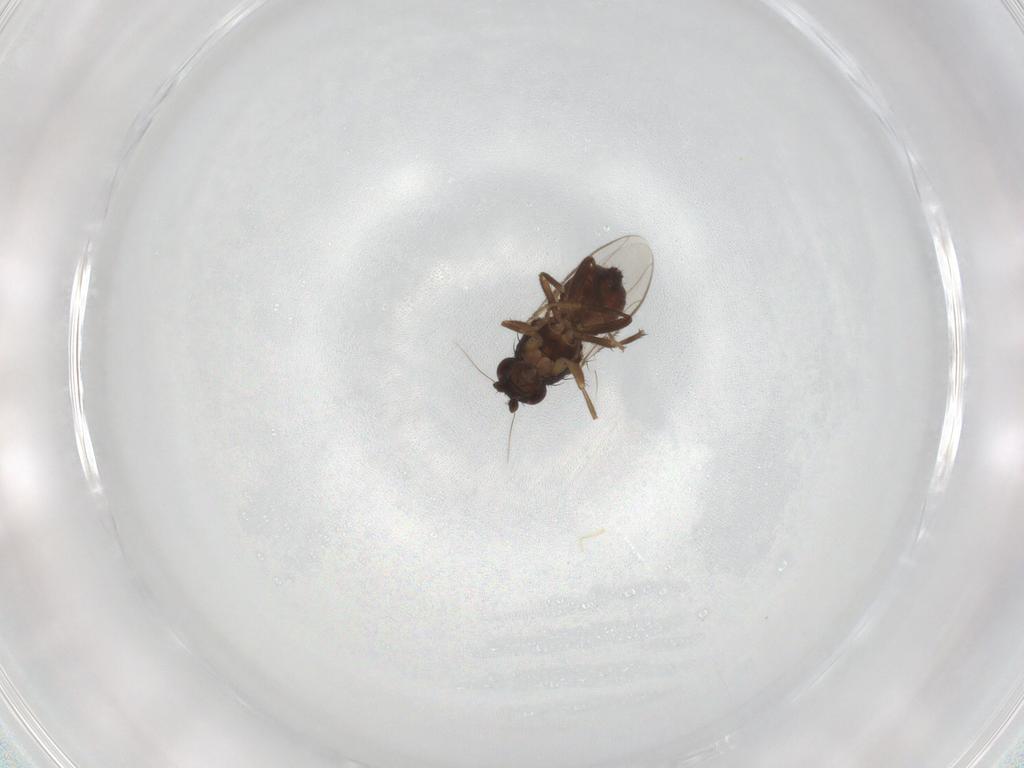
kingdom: Animalia
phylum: Arthropoda
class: Insecta
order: Diptera
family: Sphaeroceridae
